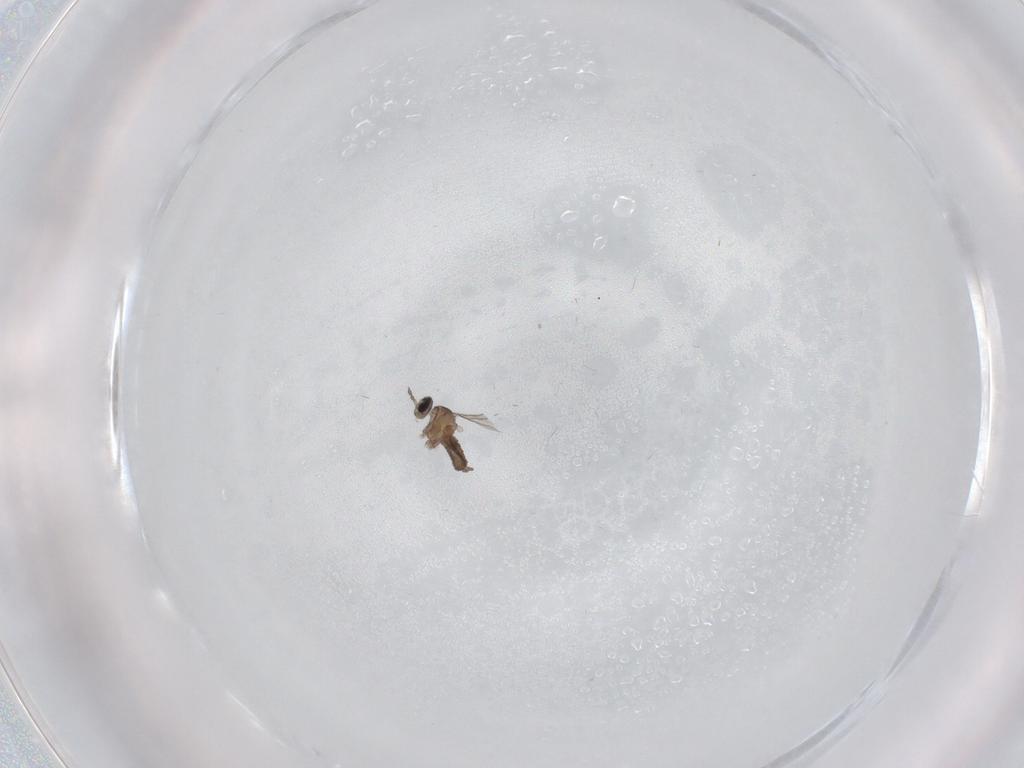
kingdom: Animalia
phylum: Arthropoda
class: Insecta
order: Diptera
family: Cecidomyiidae
